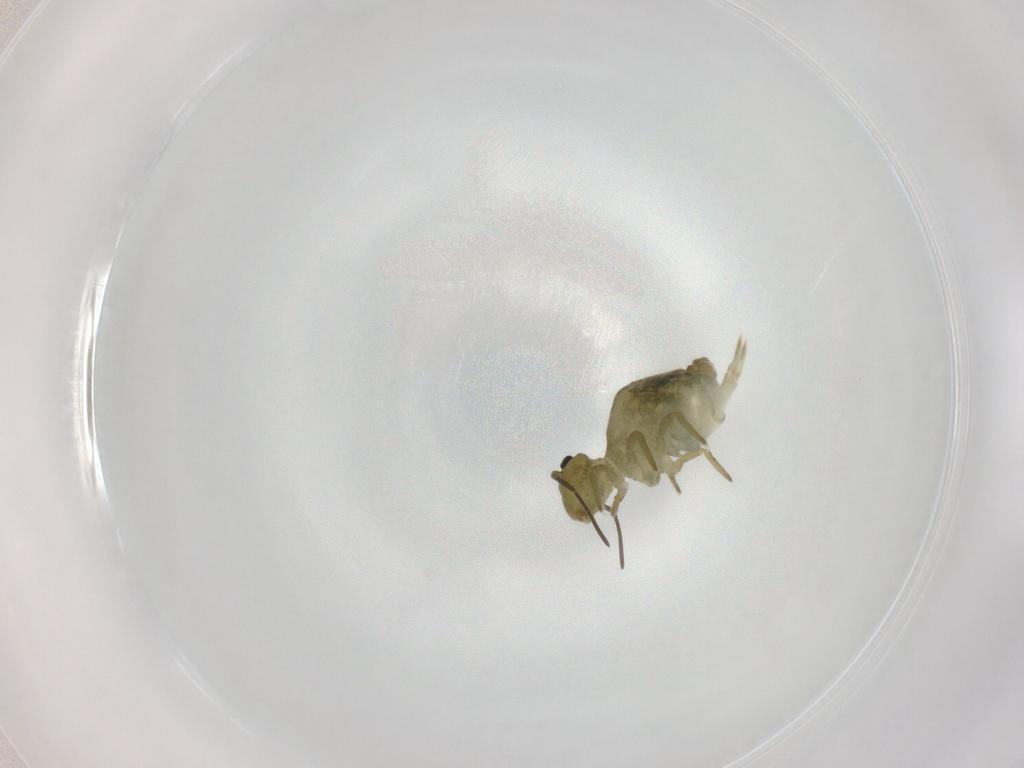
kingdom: Animalia
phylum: Arthropoda
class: Collembola
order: Symphypleona
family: Sminthuridae
